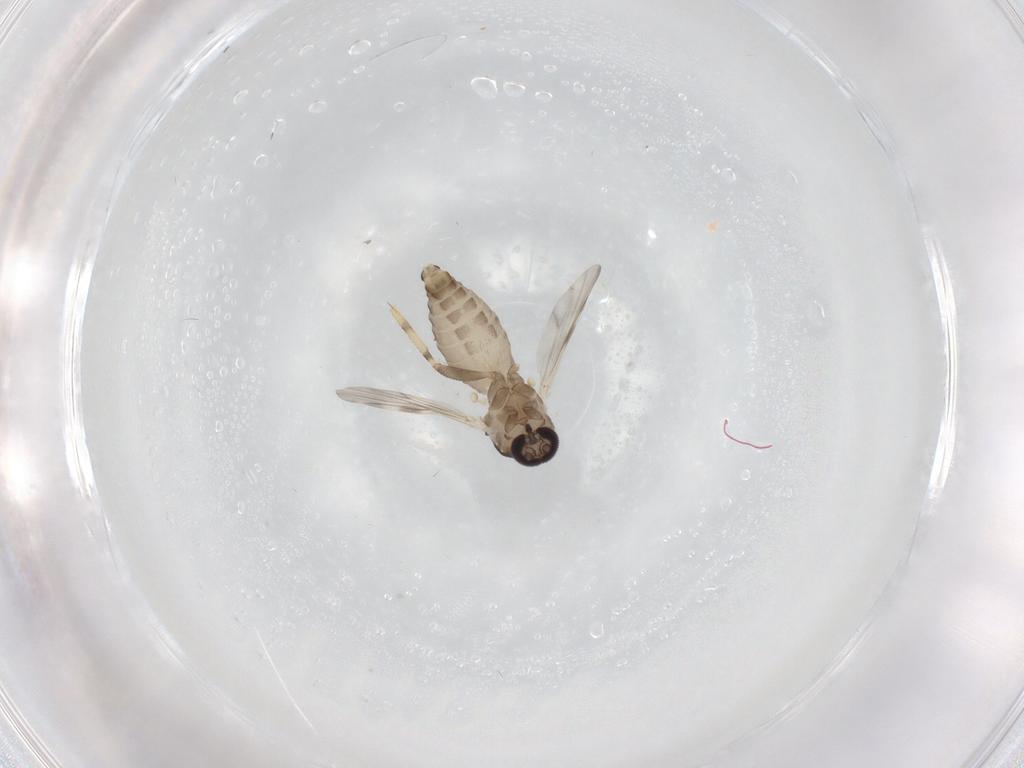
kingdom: Animalia
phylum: Arthropoda
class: Insecta
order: Diptera
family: Ceratopogonidae
